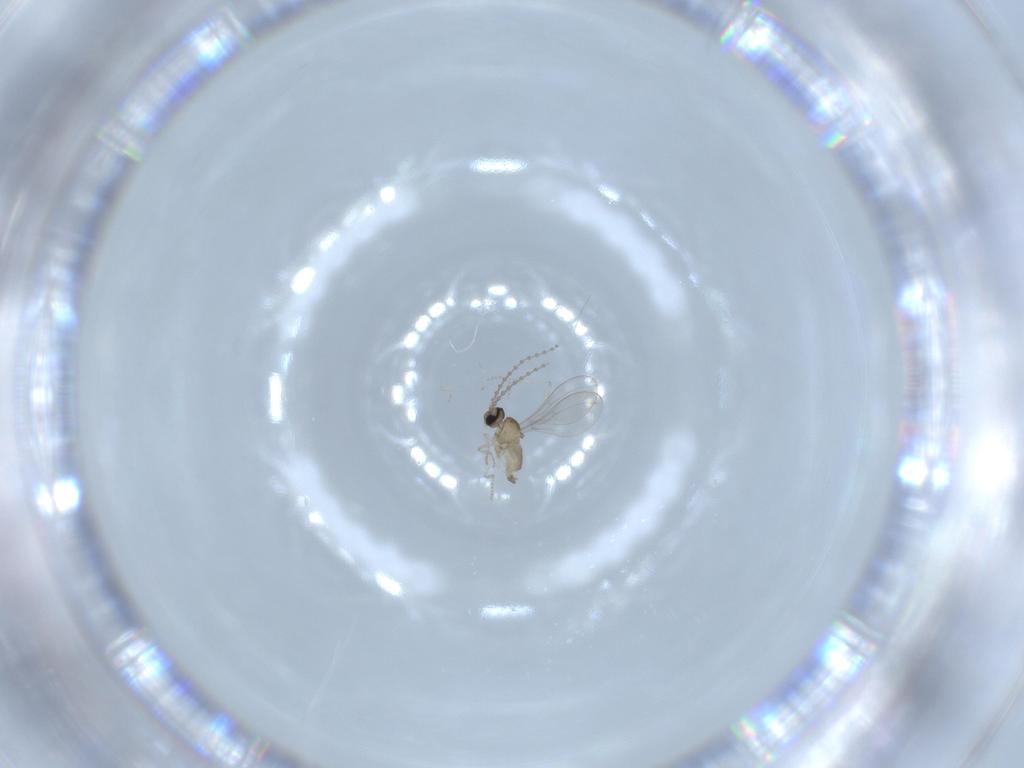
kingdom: Animalia
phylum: Arthropoda
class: Insecta
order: Diptera
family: Cecidomyiidae
